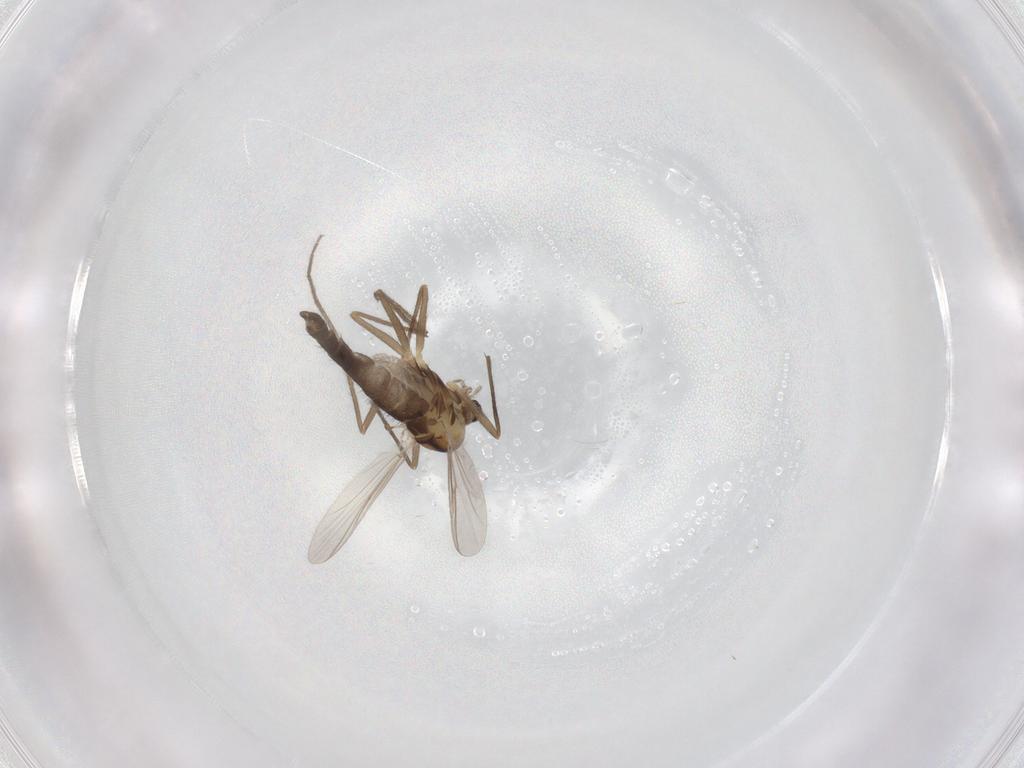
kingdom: Animalia
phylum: Arthropoda
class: Insecta
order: Diptera
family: Chironomidae
